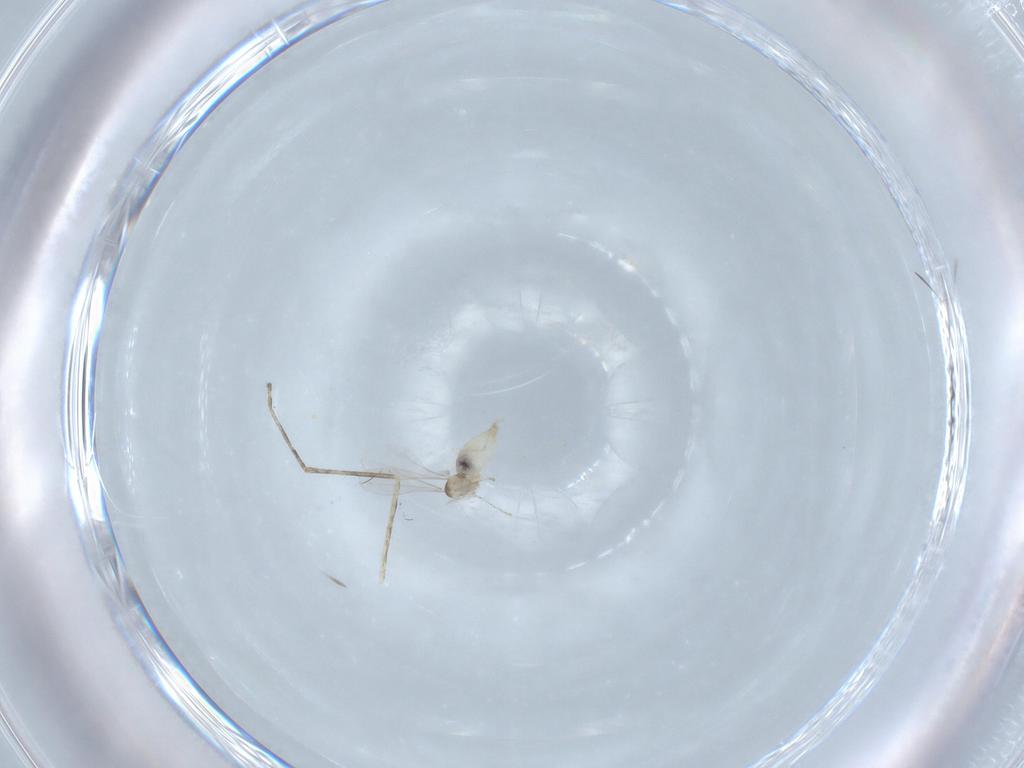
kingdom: Animalia
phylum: Arthropoda
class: Insecta
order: Diptera
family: Cecidomyiidae
